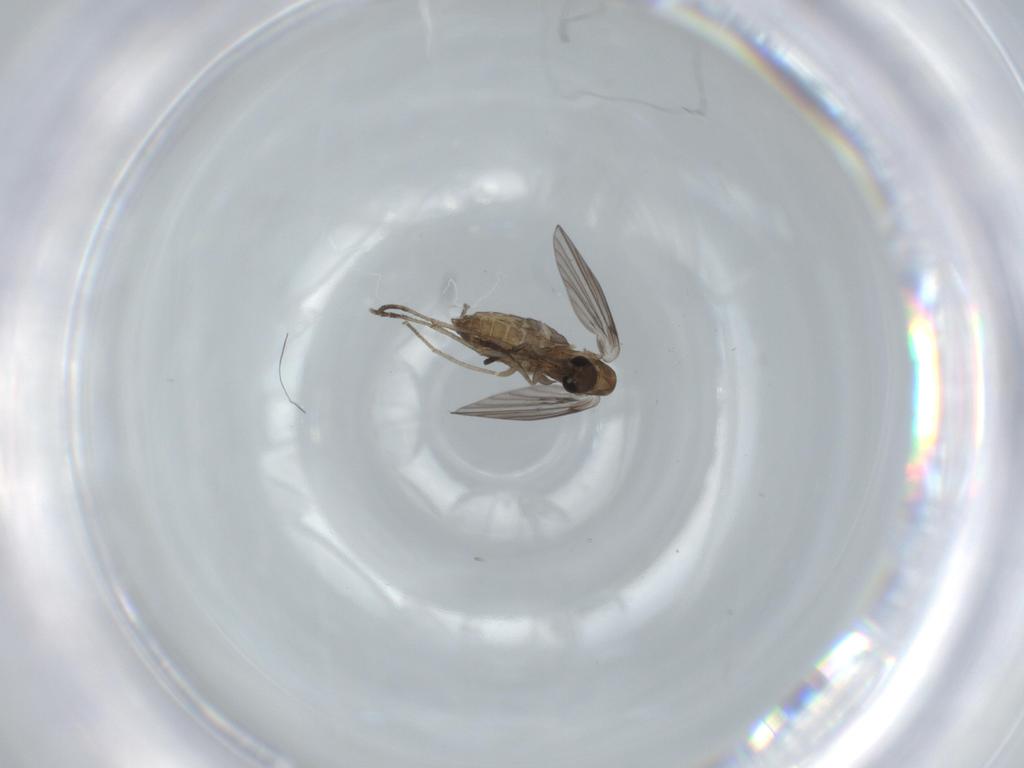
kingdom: Animalia
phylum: Arthropoda
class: Insecta
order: Diptera
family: Psychodidae
